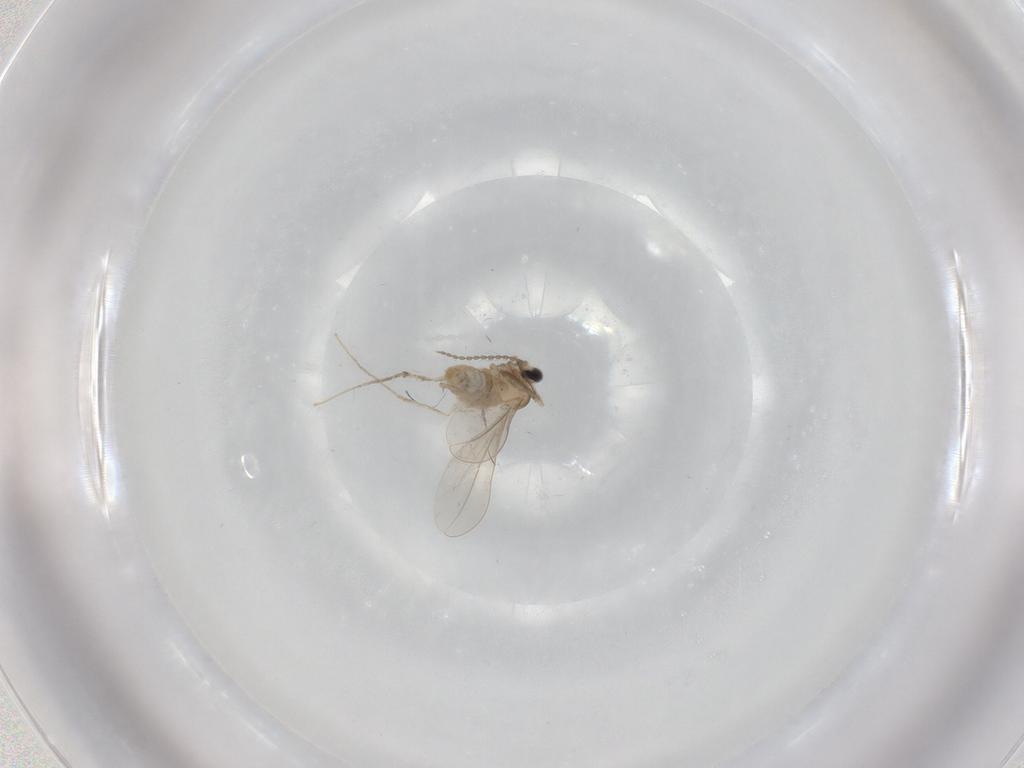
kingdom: Animalia
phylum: Arthropoda
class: Insecta
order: Diptera
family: Cecidomyiidae
